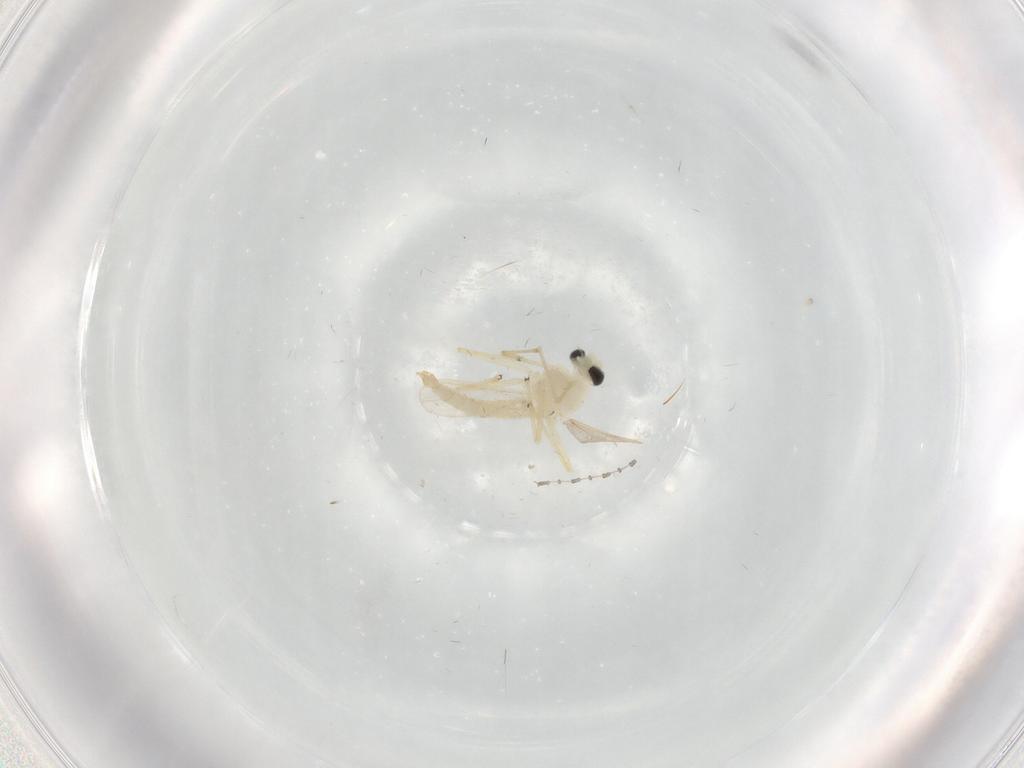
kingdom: Animalia
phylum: Arthropoda
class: Insecta
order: Diptera
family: Chironomidae
